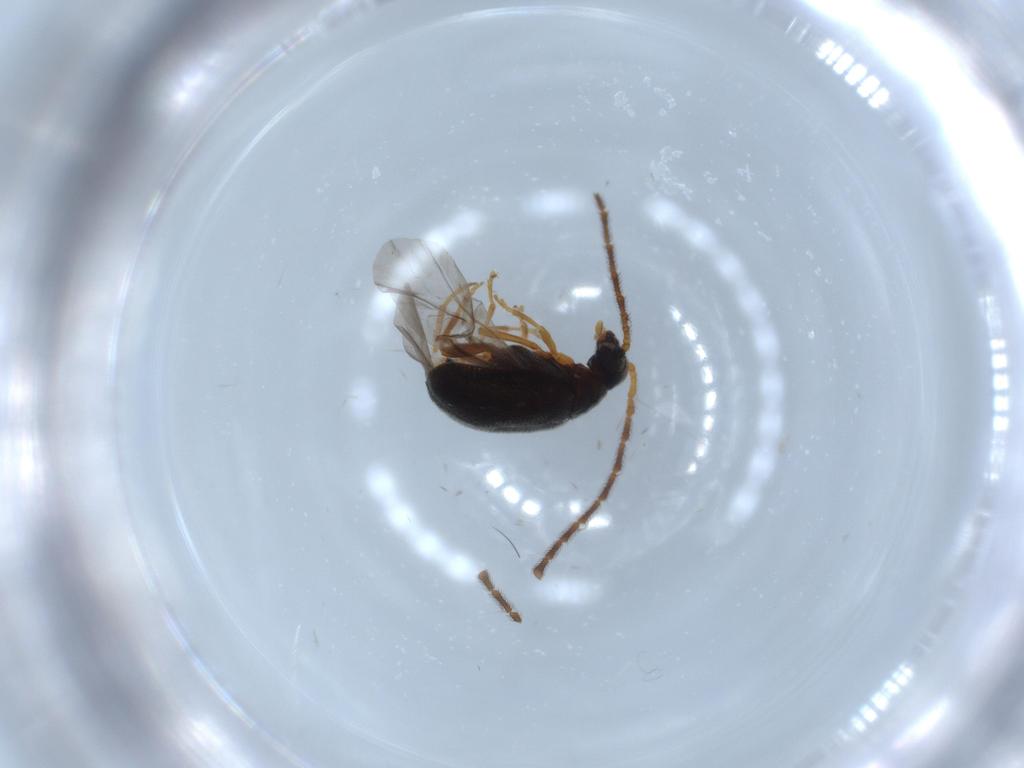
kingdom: Animalia
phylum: Arthropoda
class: Insecta
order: Coleoptera
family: Aderidae
